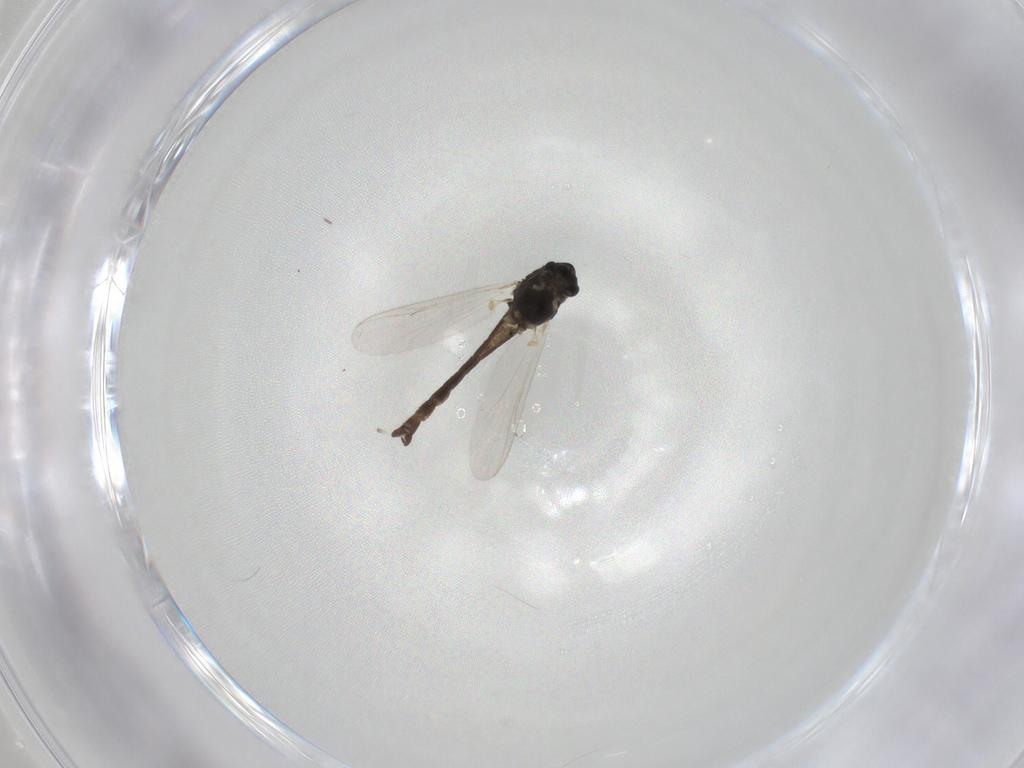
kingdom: Animalia
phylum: Arthropoda
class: Insecta
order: Diptera
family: Chironomidae
